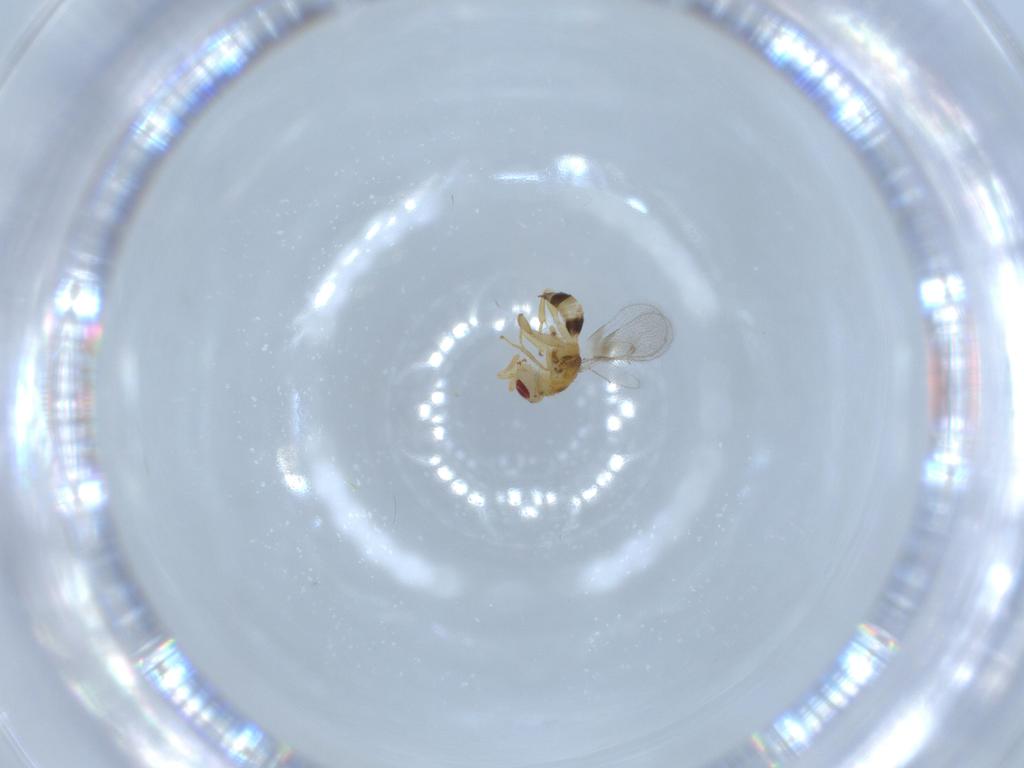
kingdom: Animalia
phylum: Arthropoda
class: Insecta
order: Hymenoptera
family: Torymidae
